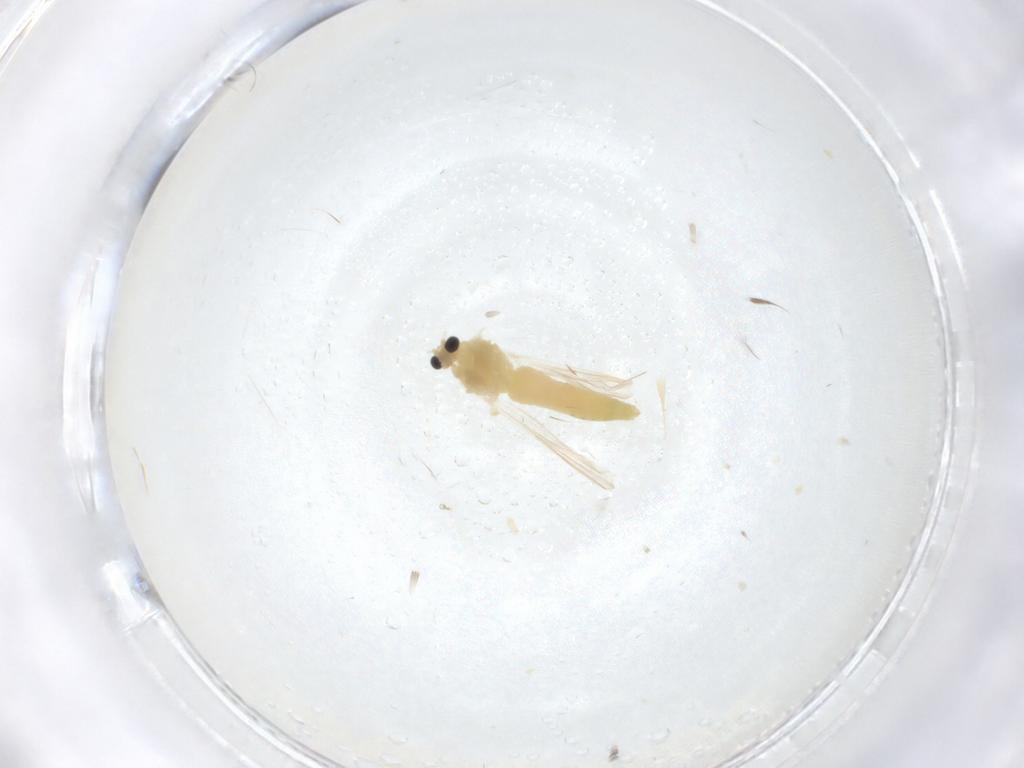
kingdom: Animalia
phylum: Arthropoda
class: Insecta
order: Diptera
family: Chironomidae
